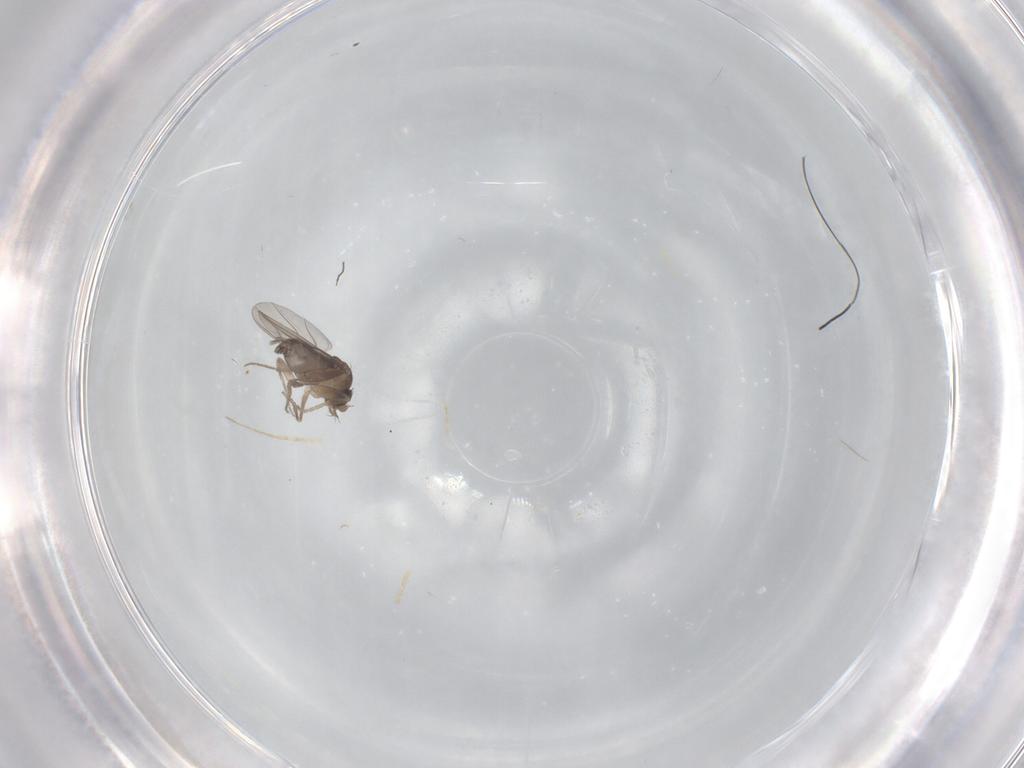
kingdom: Animalia
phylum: Arthropoda
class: Insecta
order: Diptera
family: Phoridae
